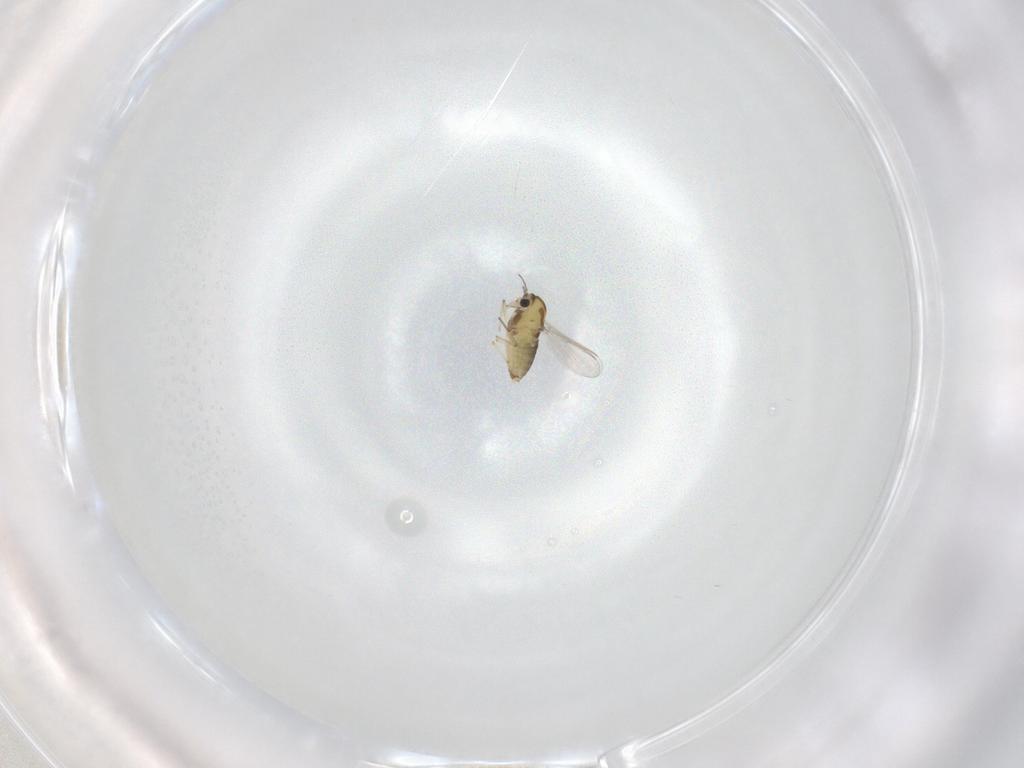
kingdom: Animalia
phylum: Arthropoda
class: Insecta
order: Diptera
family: Chironomidae
